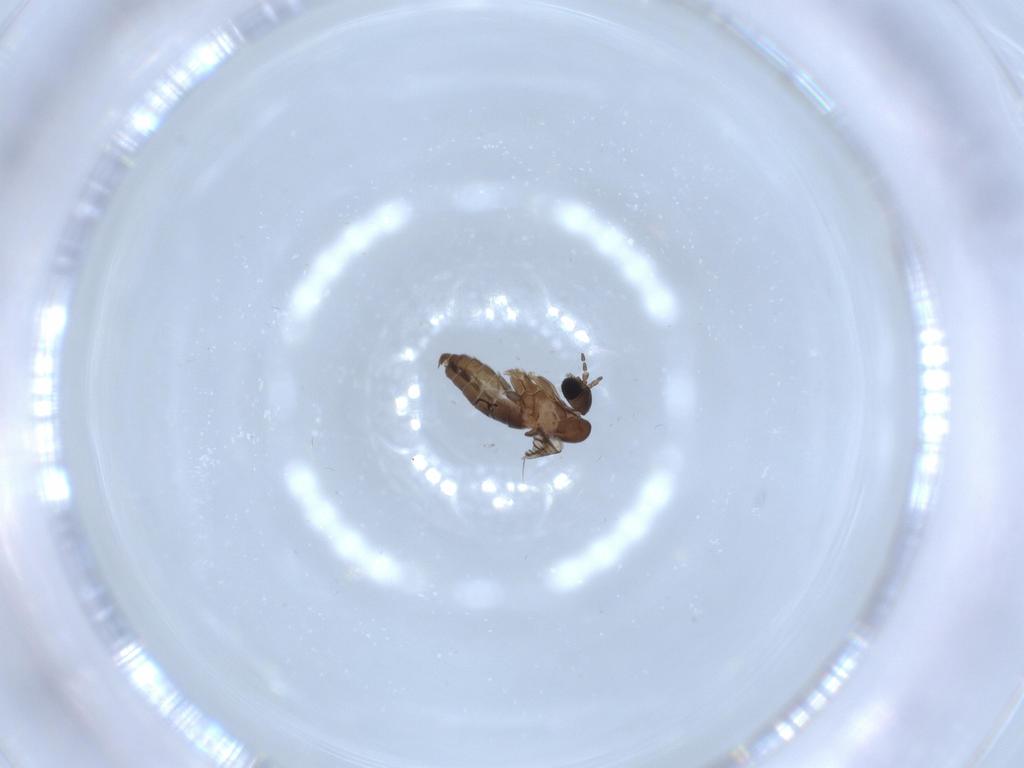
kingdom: Animalia
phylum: Arthropoda
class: Insecta
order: Diptera
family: Psychodidae
